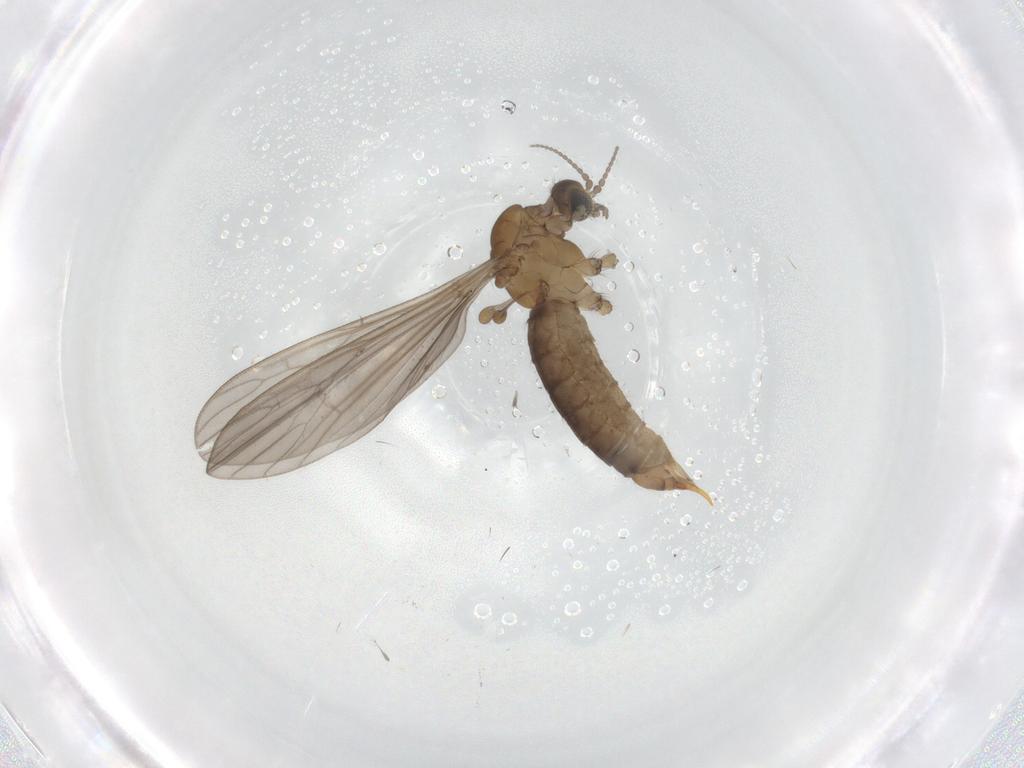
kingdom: Animalia
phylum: Arthropoda
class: Insecta
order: Diptera
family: Limoniidae
